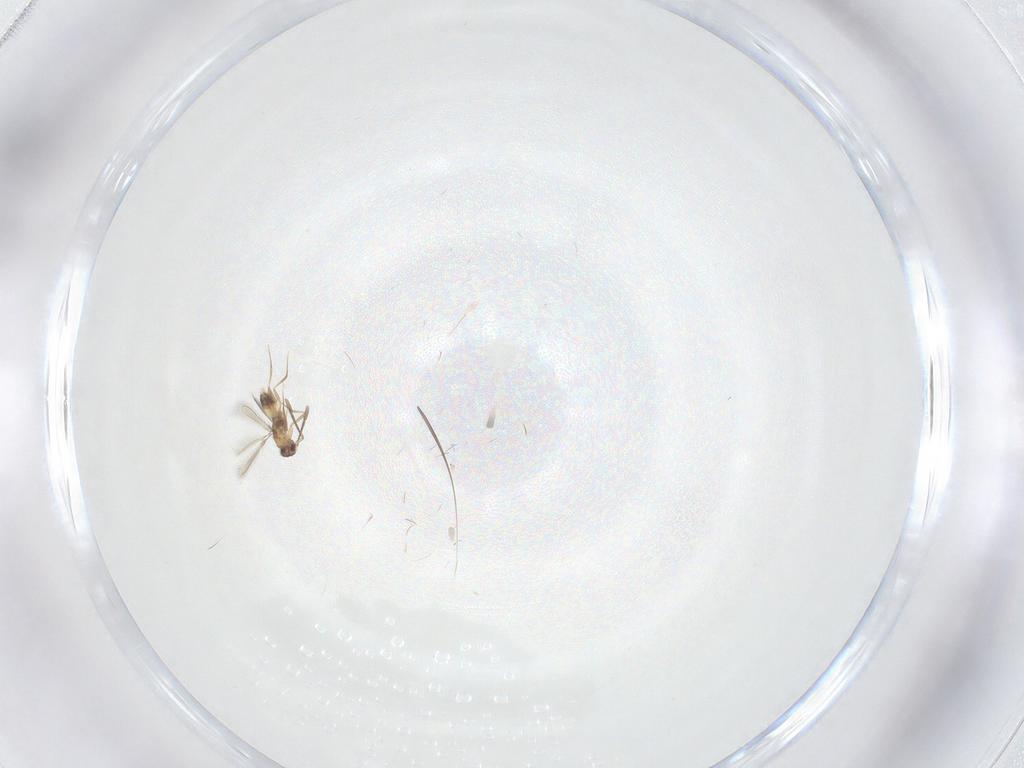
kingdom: Animalia
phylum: Arthropoda
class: Insecta
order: Hymenoptera
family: Mymaridae
